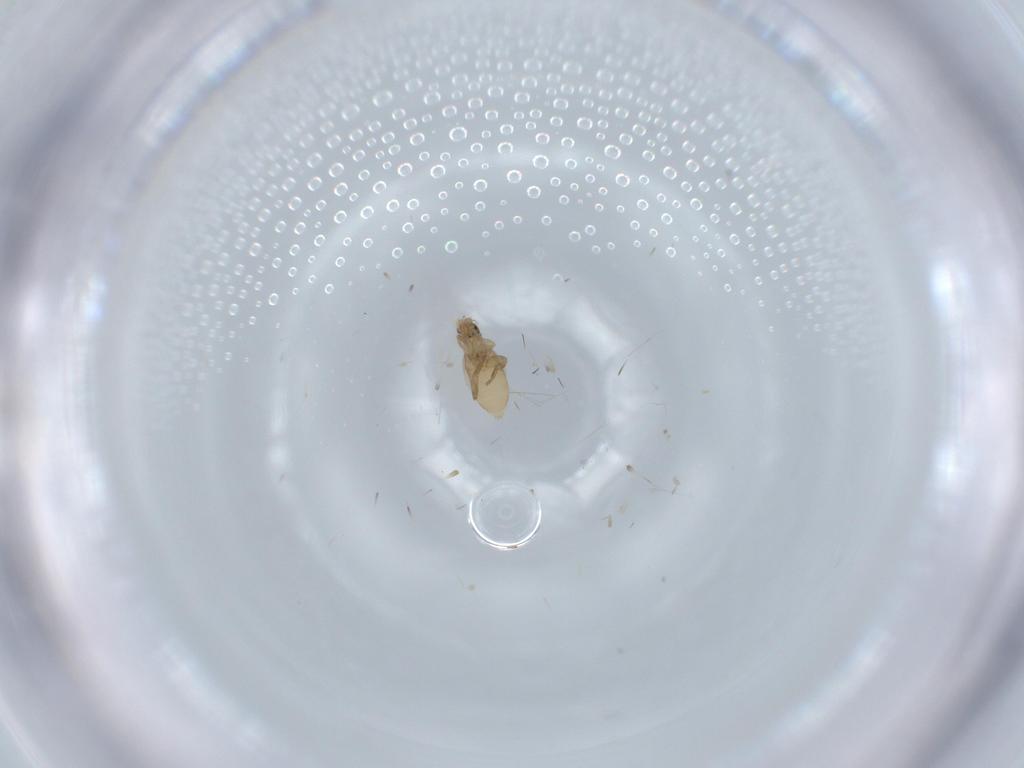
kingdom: Animalia
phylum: Arthropoda
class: Insecta
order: Diptera
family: Phoridae
